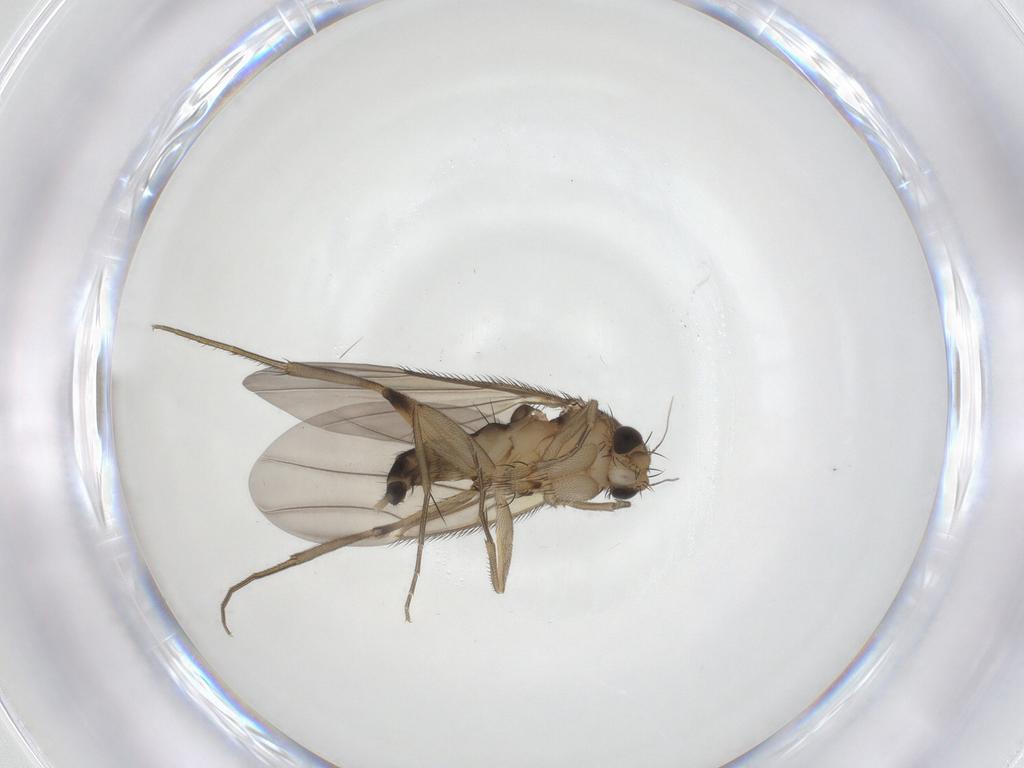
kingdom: Animalia
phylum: Arthropoda
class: Insecta
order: Diptera
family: Phoridae
